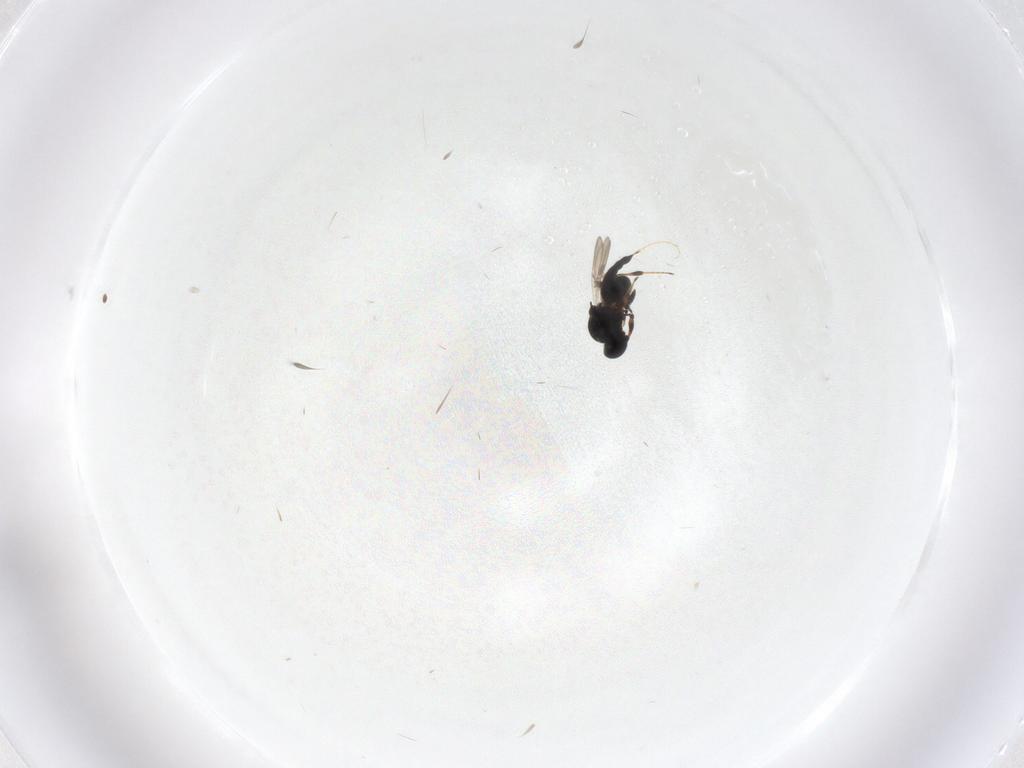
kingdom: Animalia
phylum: Arthropoda
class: Insecta
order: Hymenoptera
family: Platygastridae
